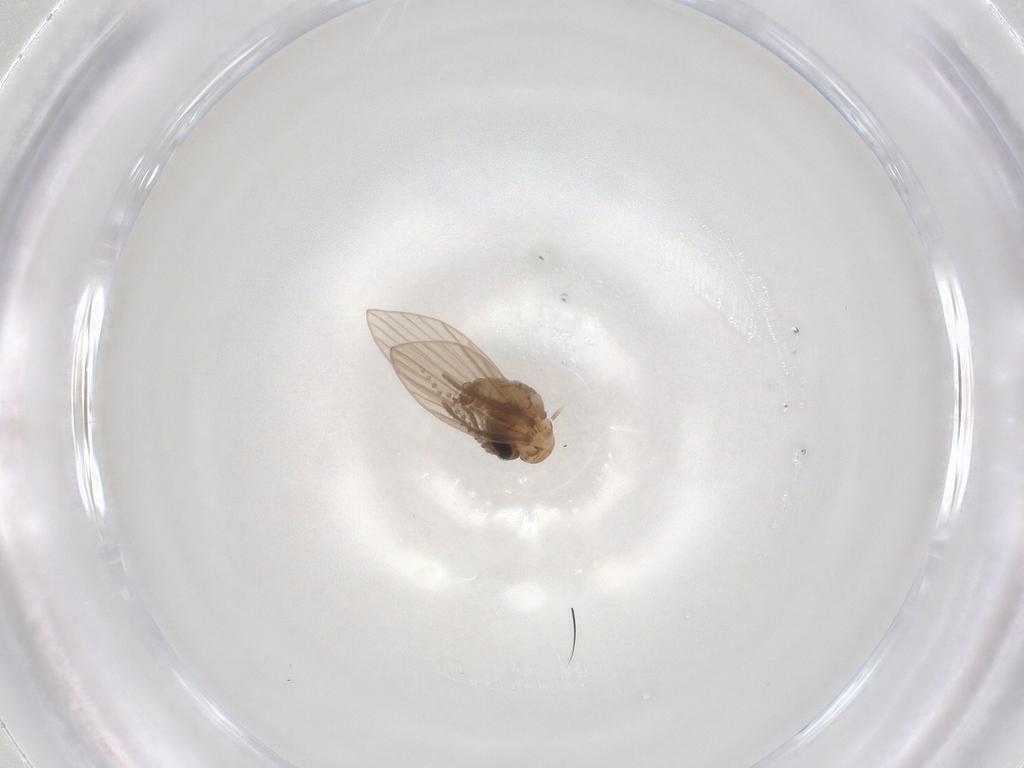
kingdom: Animalia
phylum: Arthropoda
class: Insecta
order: Diptera
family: Psychodidae
